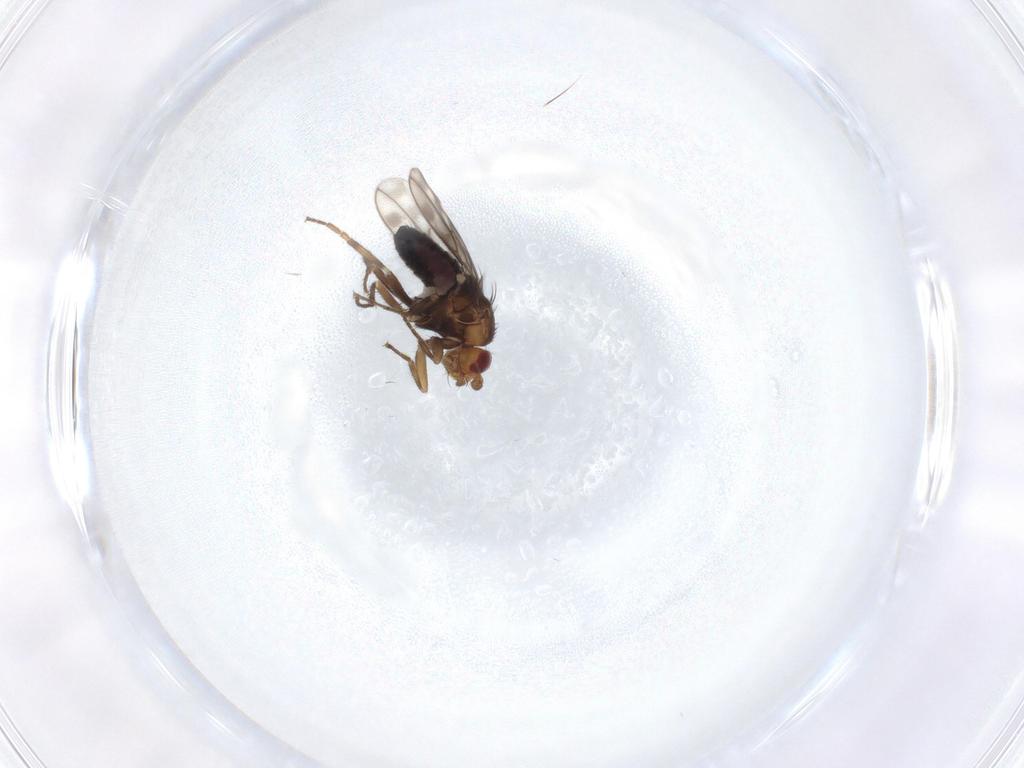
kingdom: Animalia
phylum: Arthropoda
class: Insecta
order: Diptera
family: Sphaeroceridae
